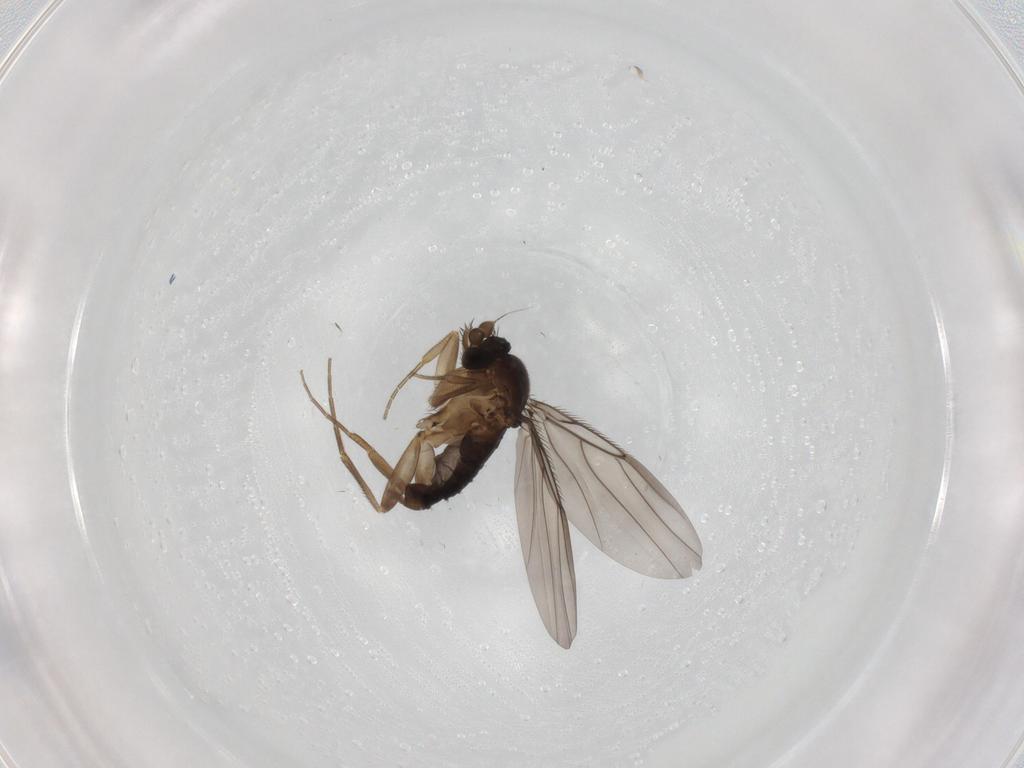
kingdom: Animalia
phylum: Arthropoda
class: Insecta
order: Diptera
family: Phoridae
